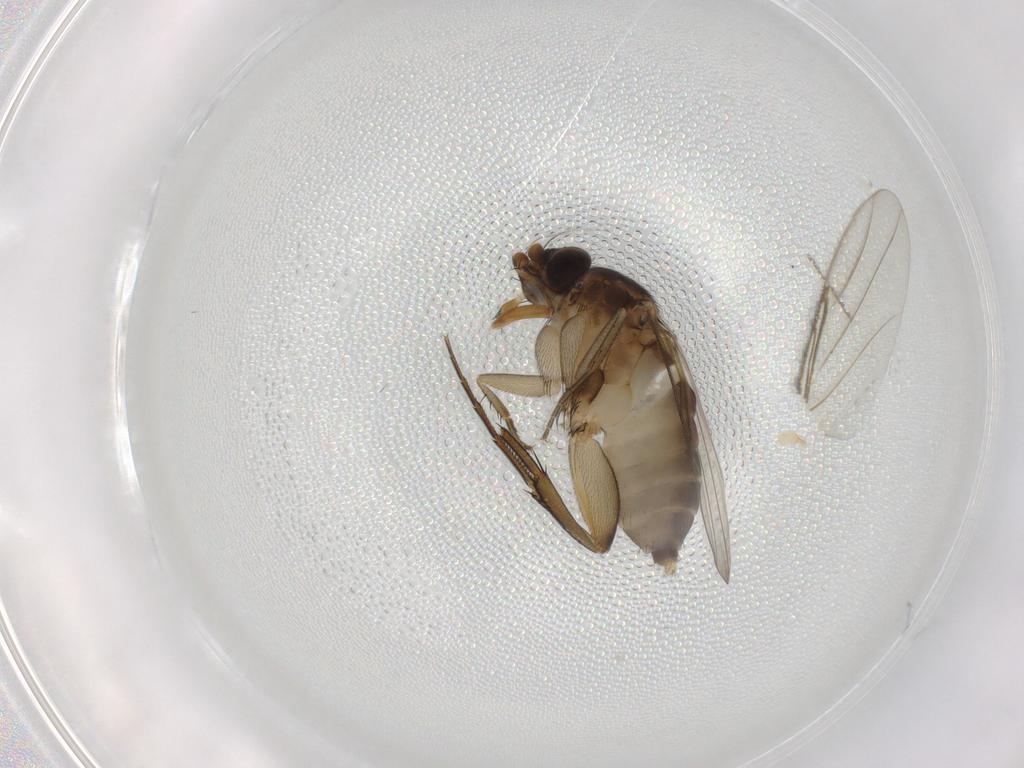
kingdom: Animalia
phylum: Arthropoda
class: Insecta
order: Diptera
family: Phoridae
